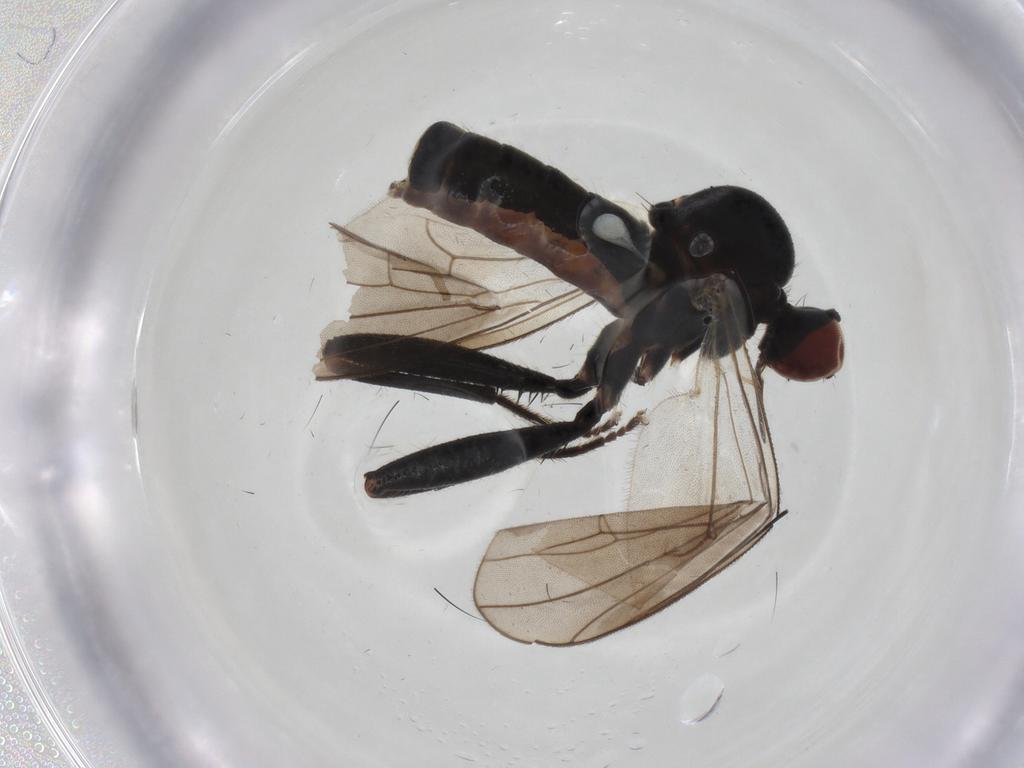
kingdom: Animalia
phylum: Arthropoda
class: Insecta
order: Diptera
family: Hybotidae
